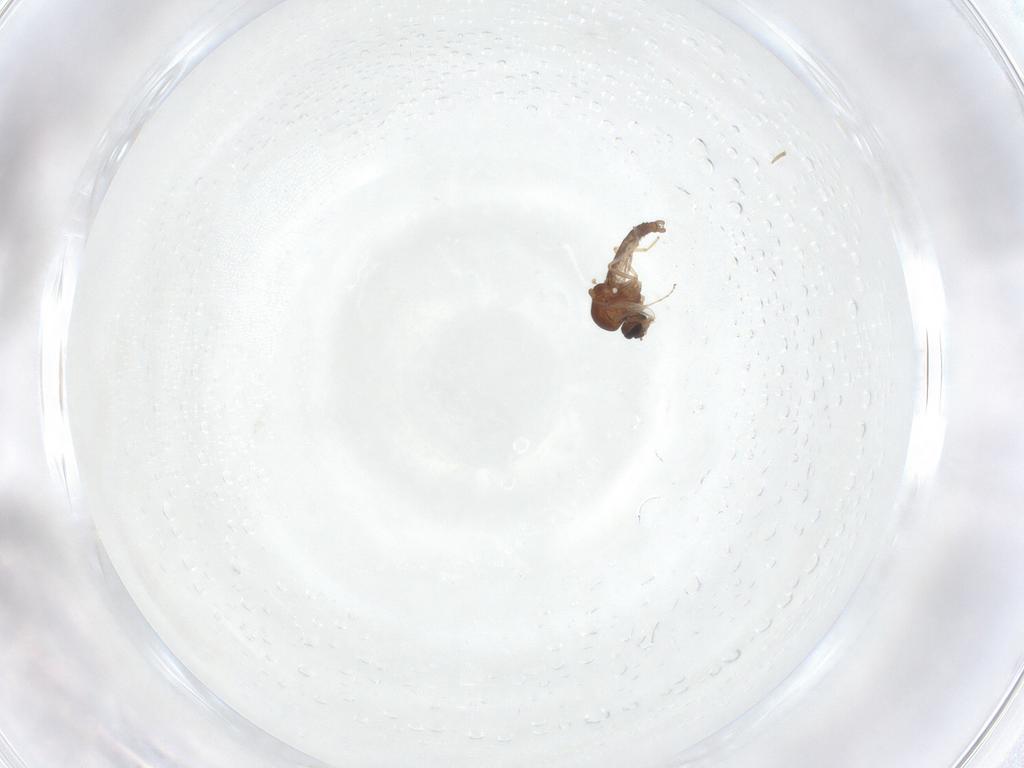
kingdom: Animalia
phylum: Arthropoda
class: Insecta
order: Diptera
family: Ceratopogonidae
